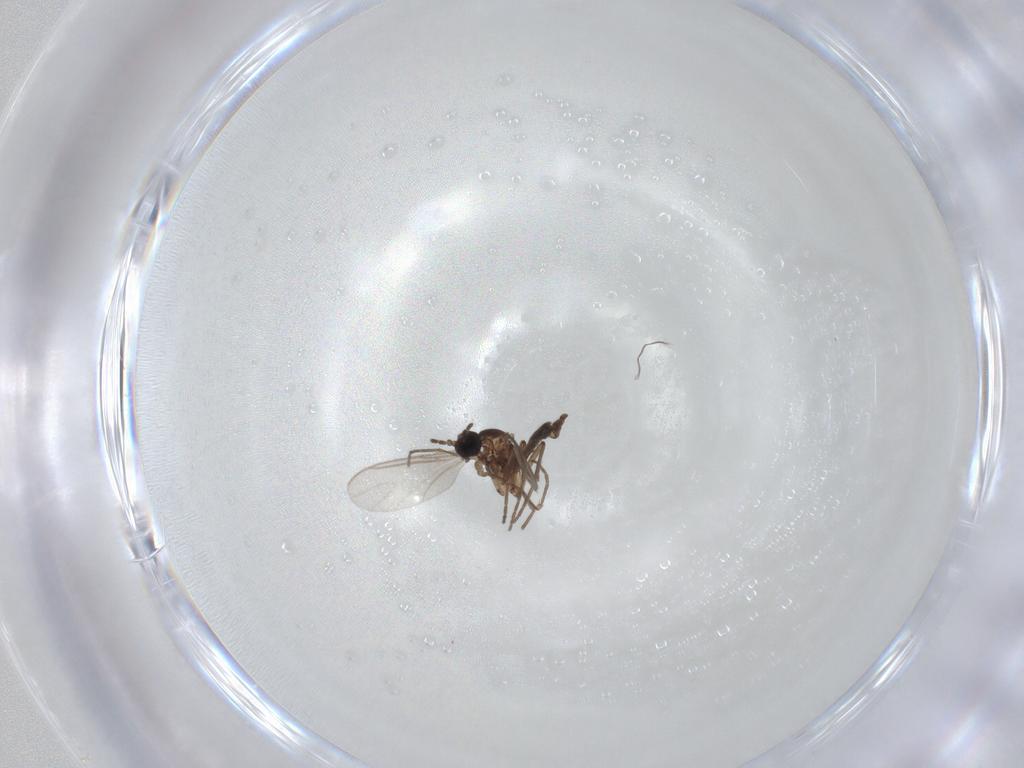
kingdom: Animalia
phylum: Arthropoda
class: Insecta
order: Diptera
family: Sciaridae
